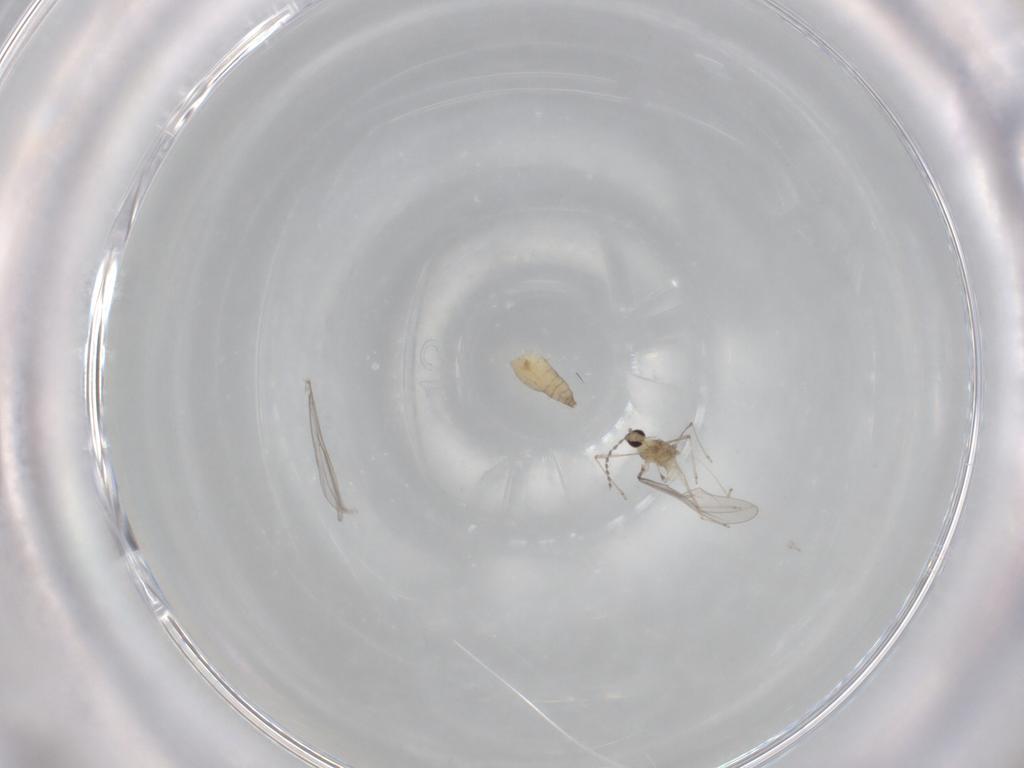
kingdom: Animalia
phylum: Arthropoda
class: Insecta
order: Diptera
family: Cecidomyiidae
